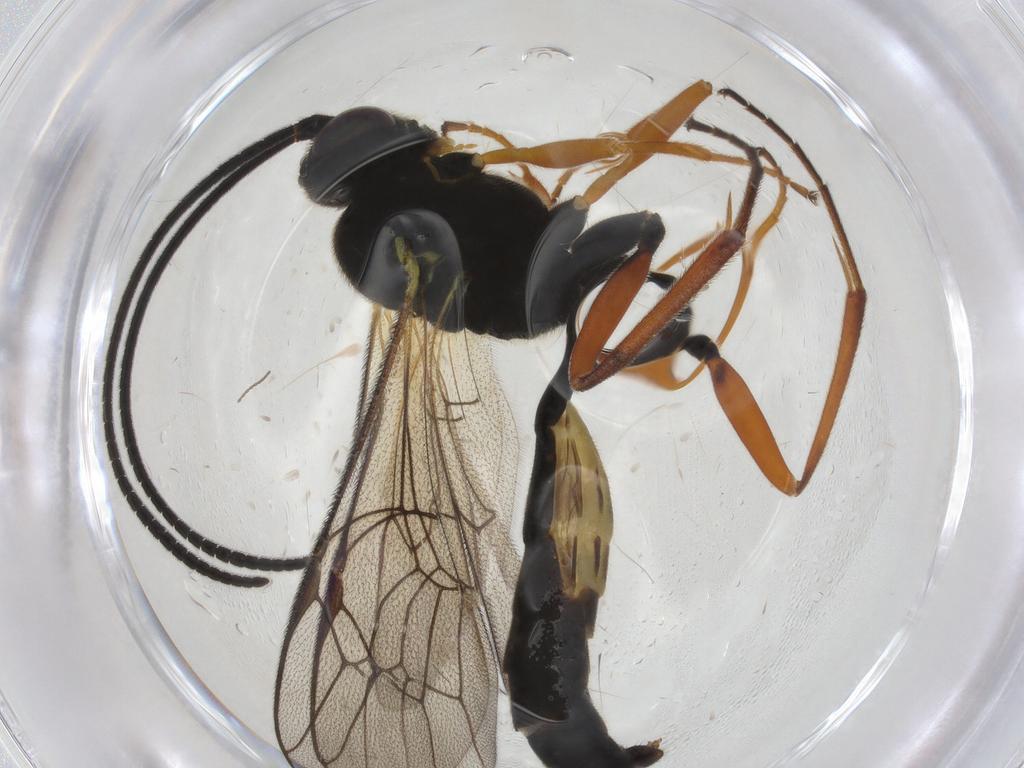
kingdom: Animalia
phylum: Arthropoda
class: Insecta
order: Hymenoptera
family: Ichneumonidae
